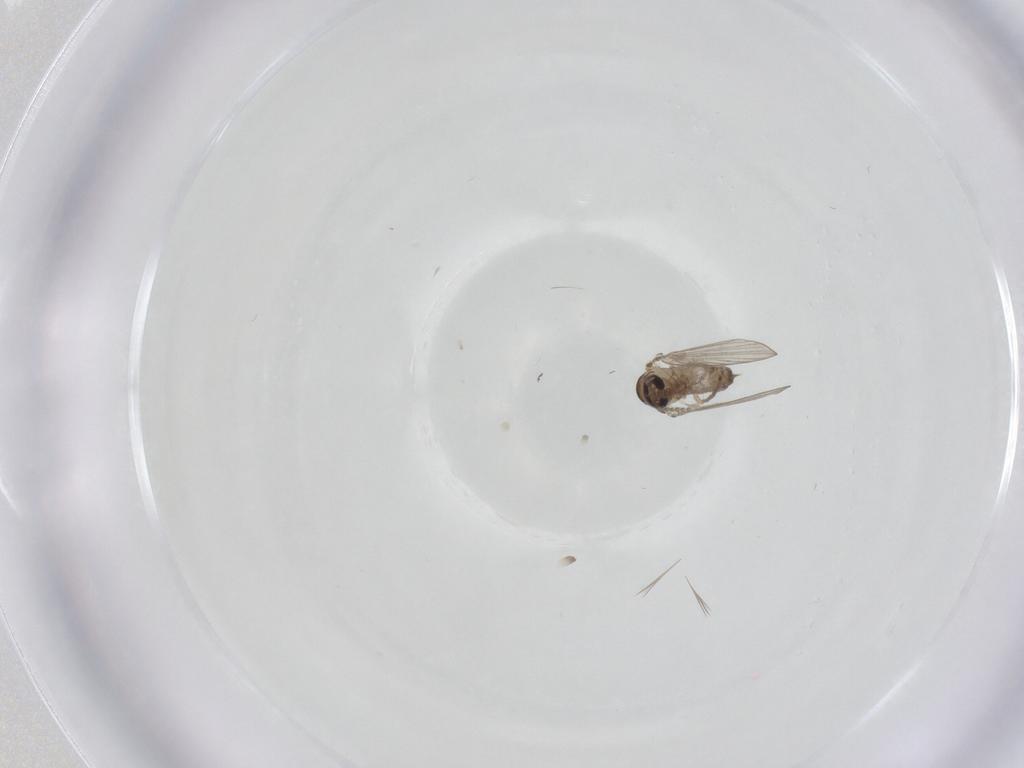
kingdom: Animalia
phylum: Arthropoda
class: Insecta
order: Diptera
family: Psychodidae
